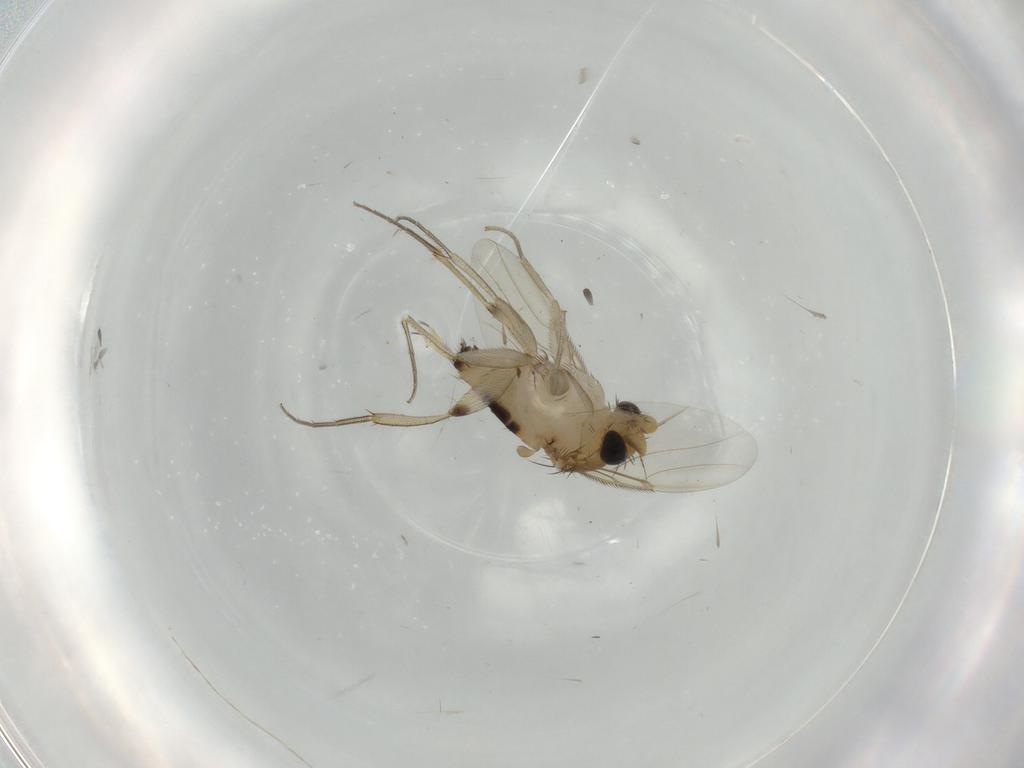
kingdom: Animalia
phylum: Arthropoda
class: Insecta
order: Diptera
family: Phoridae
